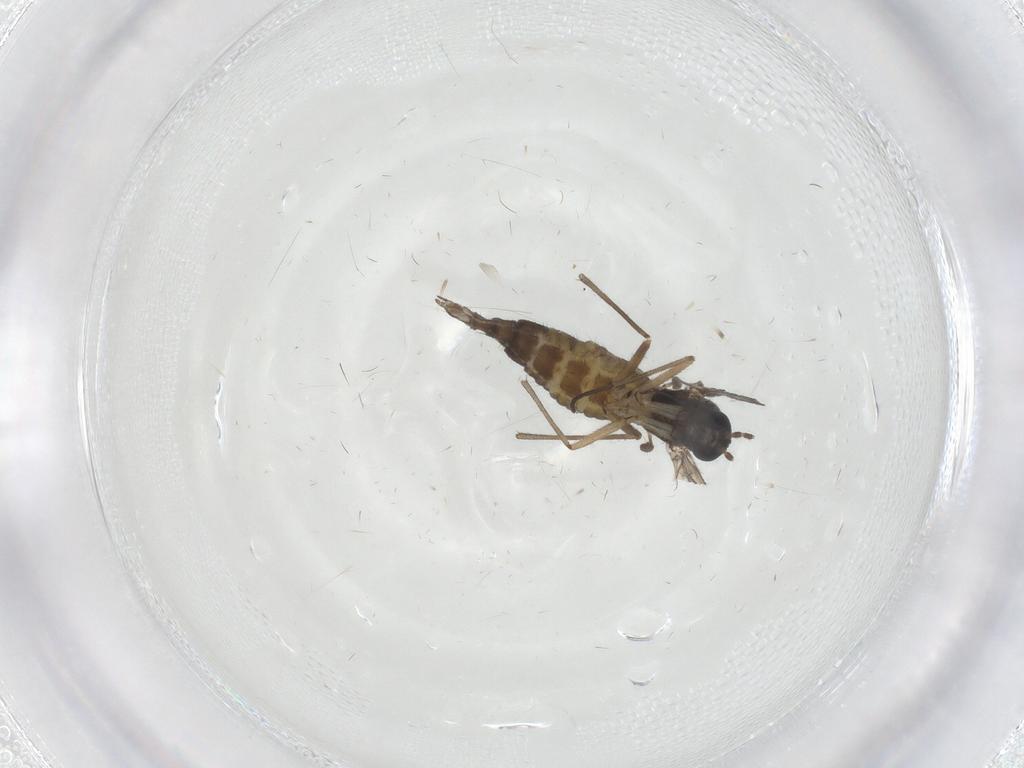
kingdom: Animalia
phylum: Arthropoda
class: Insecta
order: Diptera
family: Sciaridae
